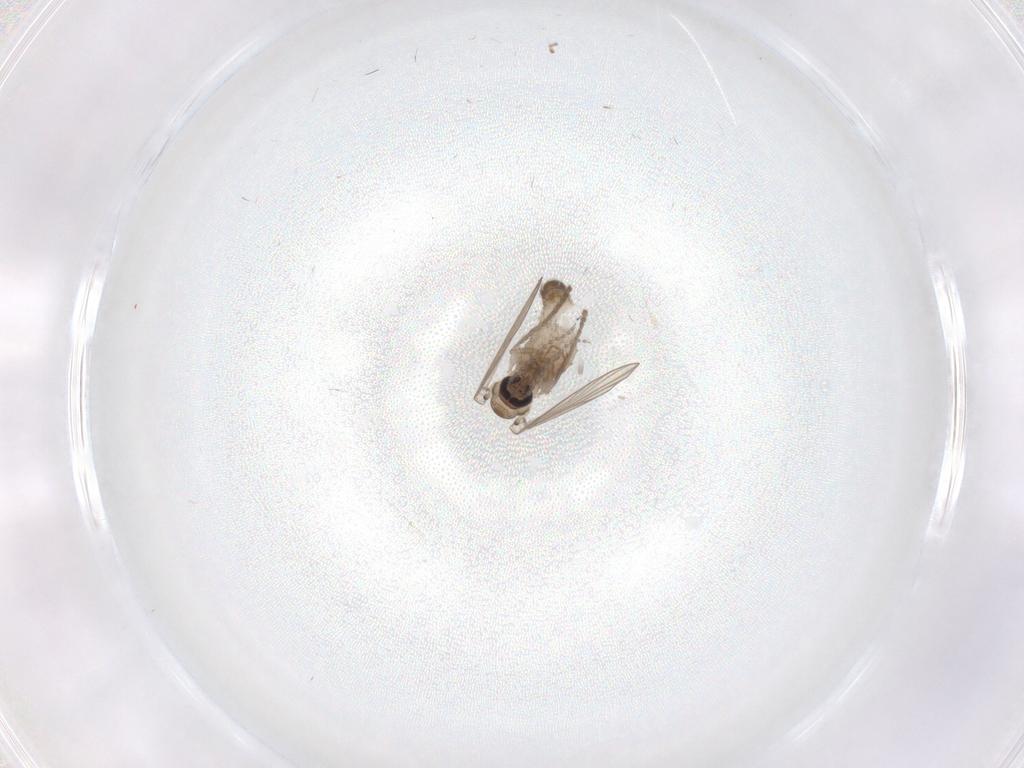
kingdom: Animalia
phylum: Arthropoda
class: Insecta
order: Diptera
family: Psychodidae
